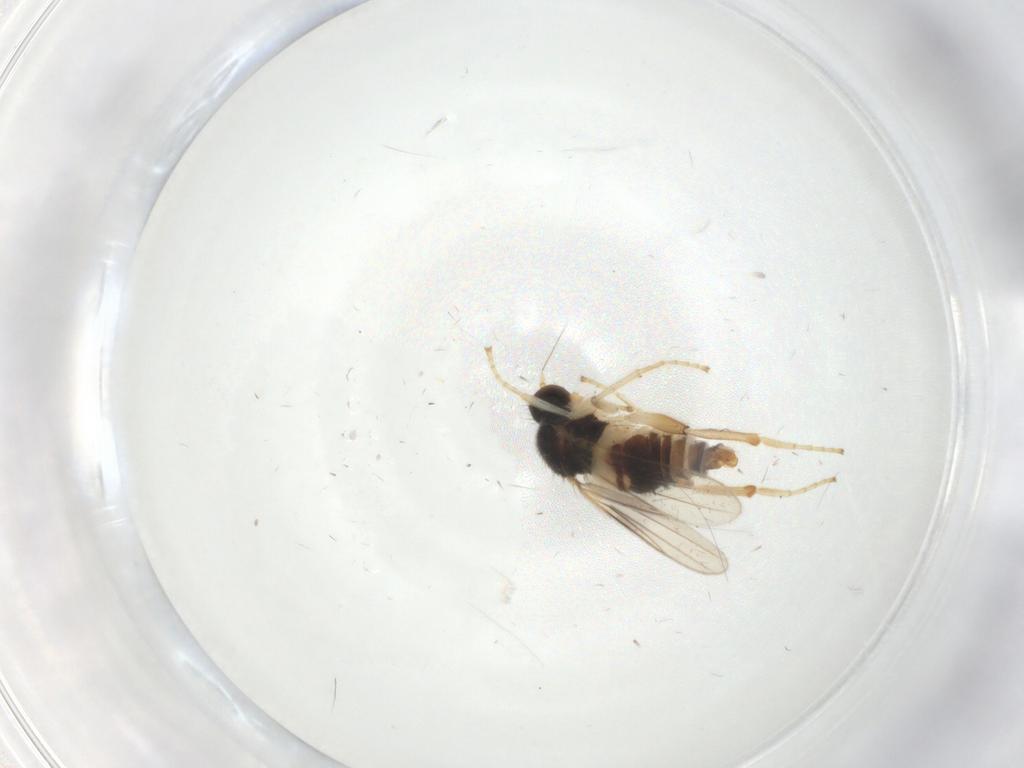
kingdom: Animalia
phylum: Arthropoda
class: Insecta
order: Diptera
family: Hybotidae
